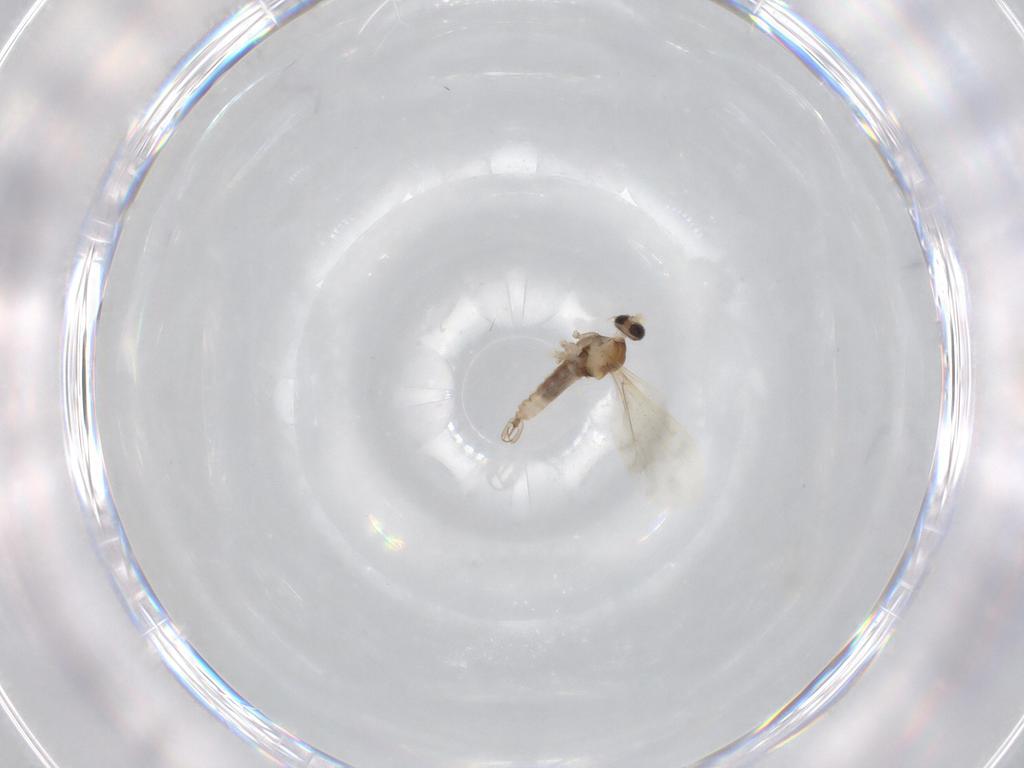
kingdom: Animalia
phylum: Arthropoda
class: Insecta
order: Diptera
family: Cecidomyiidae
